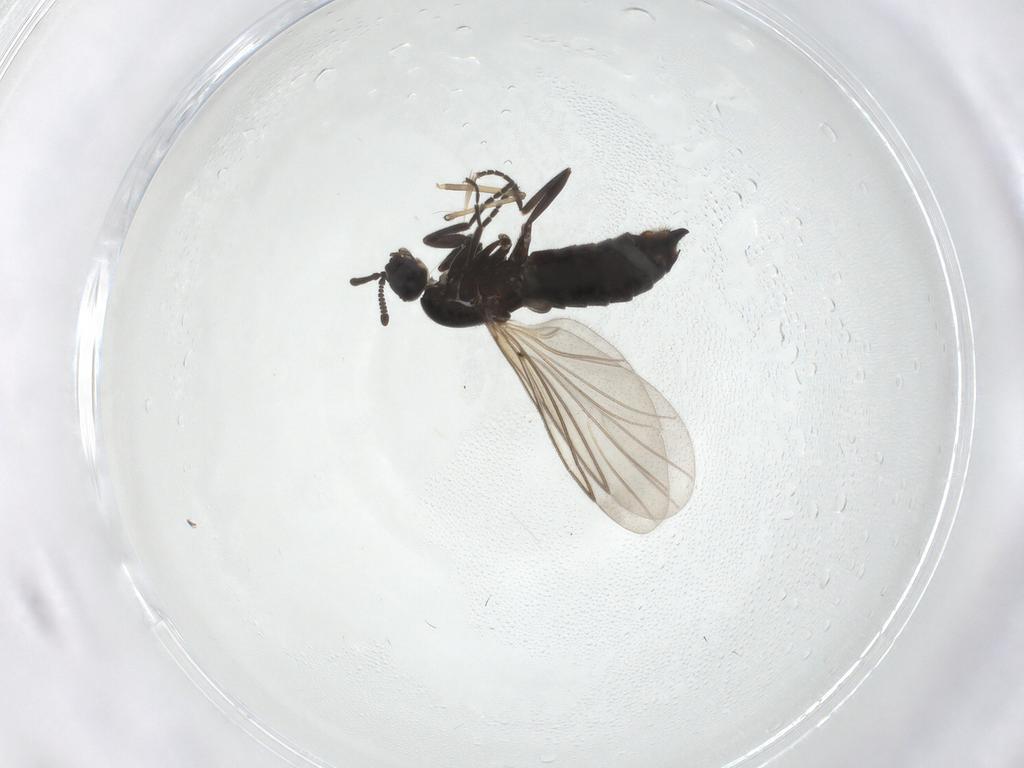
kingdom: Animalia
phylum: Arthropoda
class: Insecta
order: Diptera
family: Chironomidae
